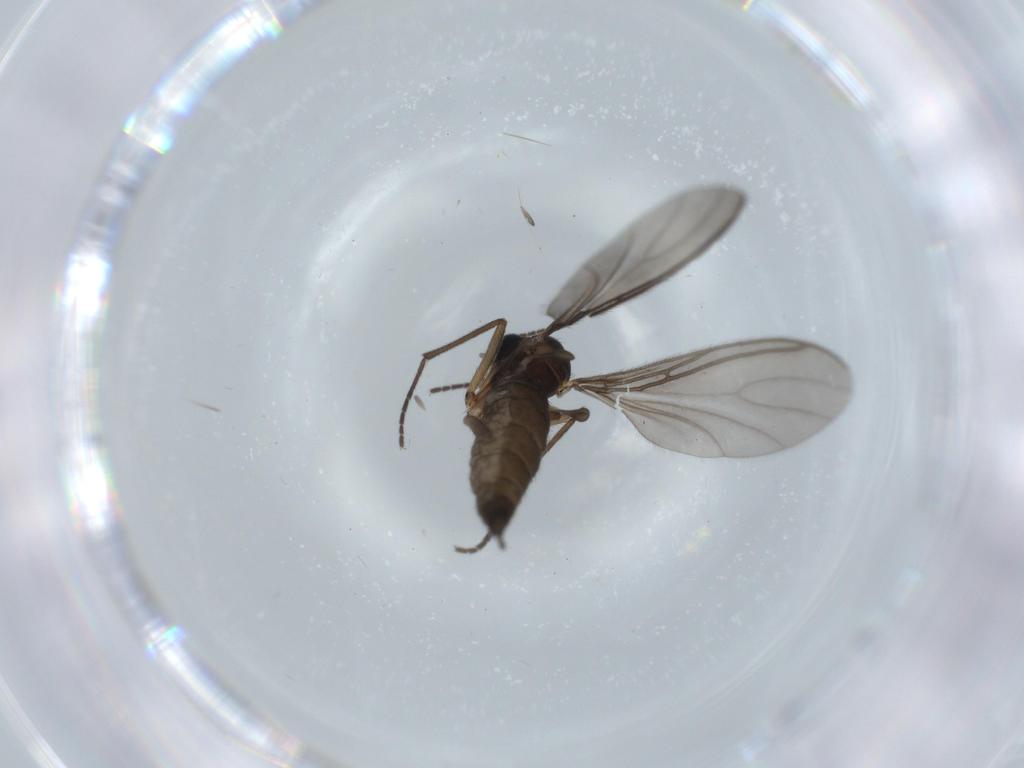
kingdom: Animalia
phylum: Arthropoda
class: Insecta
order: Diptera
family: Sciaridae
